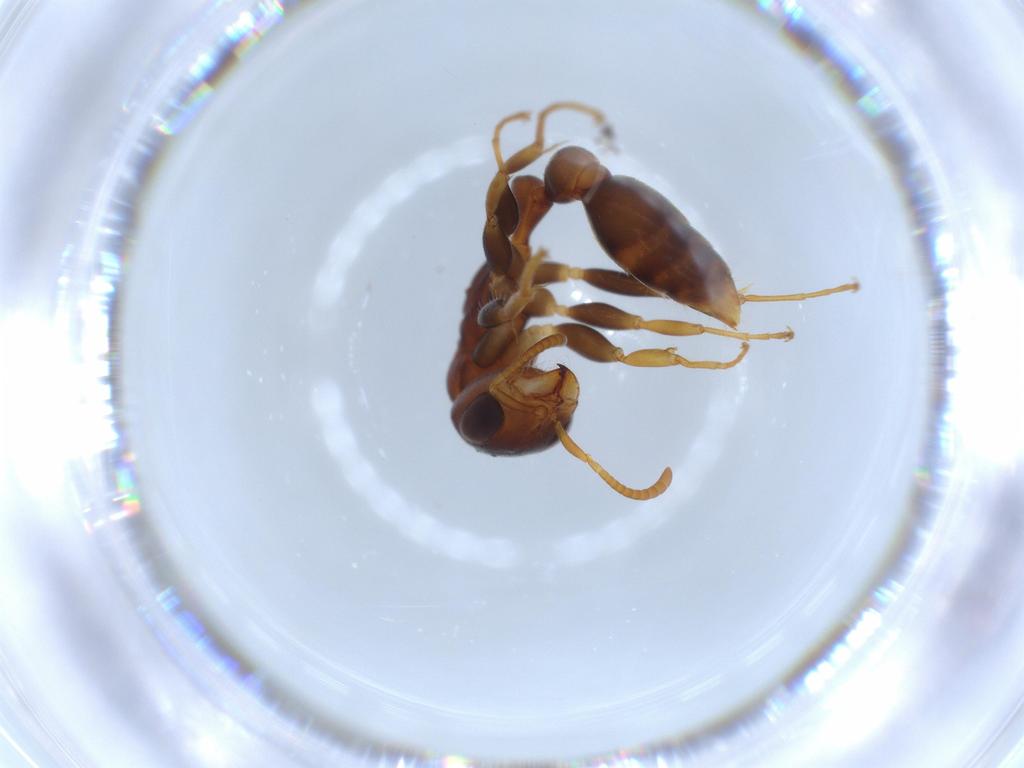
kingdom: Animalia
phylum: Arthropoda
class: Insecta
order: Hymenoptera
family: Formicidae
